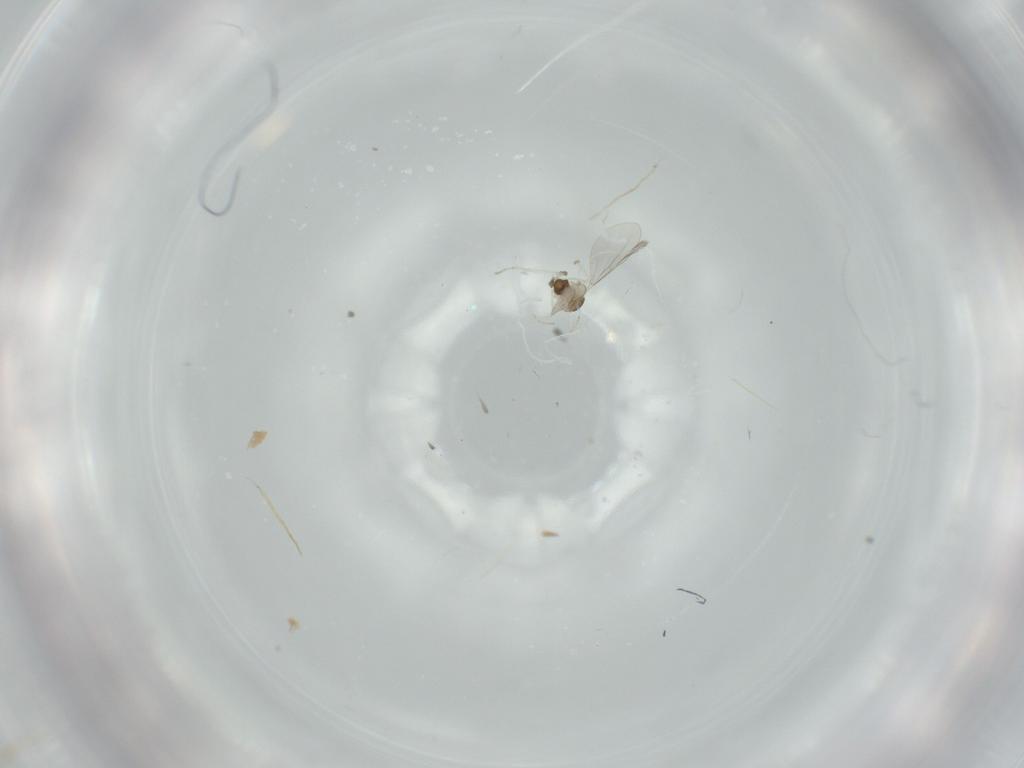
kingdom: Animalia
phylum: Arthropoda
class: Insecta
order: Diptera
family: Cecidomyiidae
